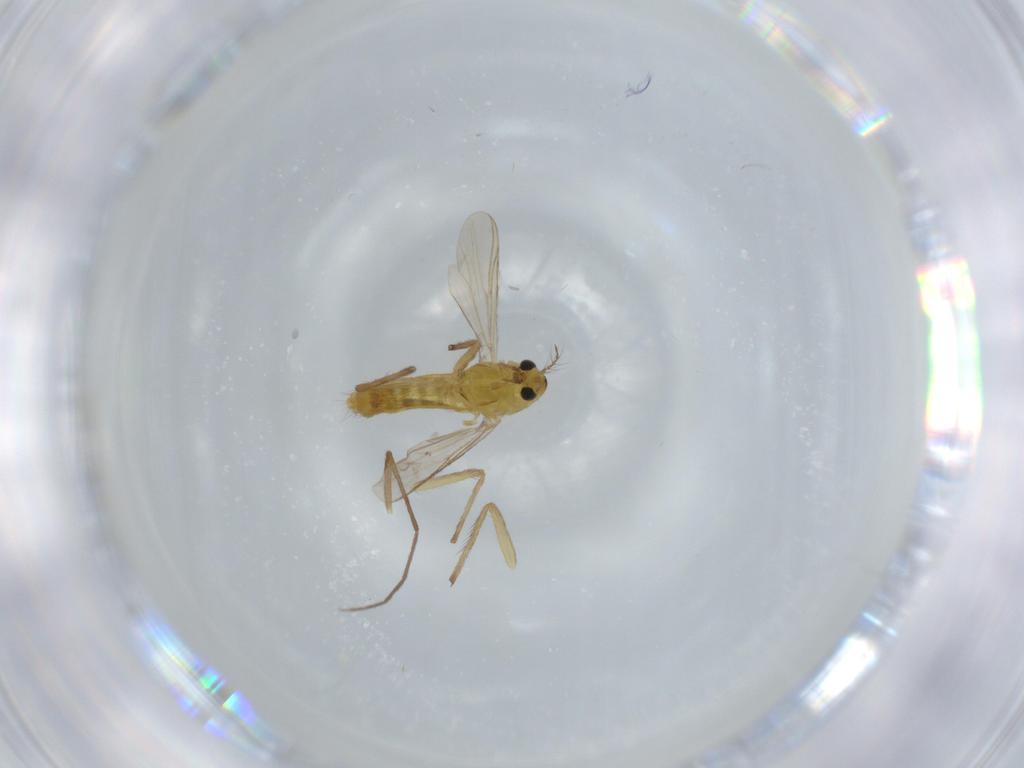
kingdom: Animalia
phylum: Arthropoda
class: Insecta
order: Diptera
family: Chironomidae
